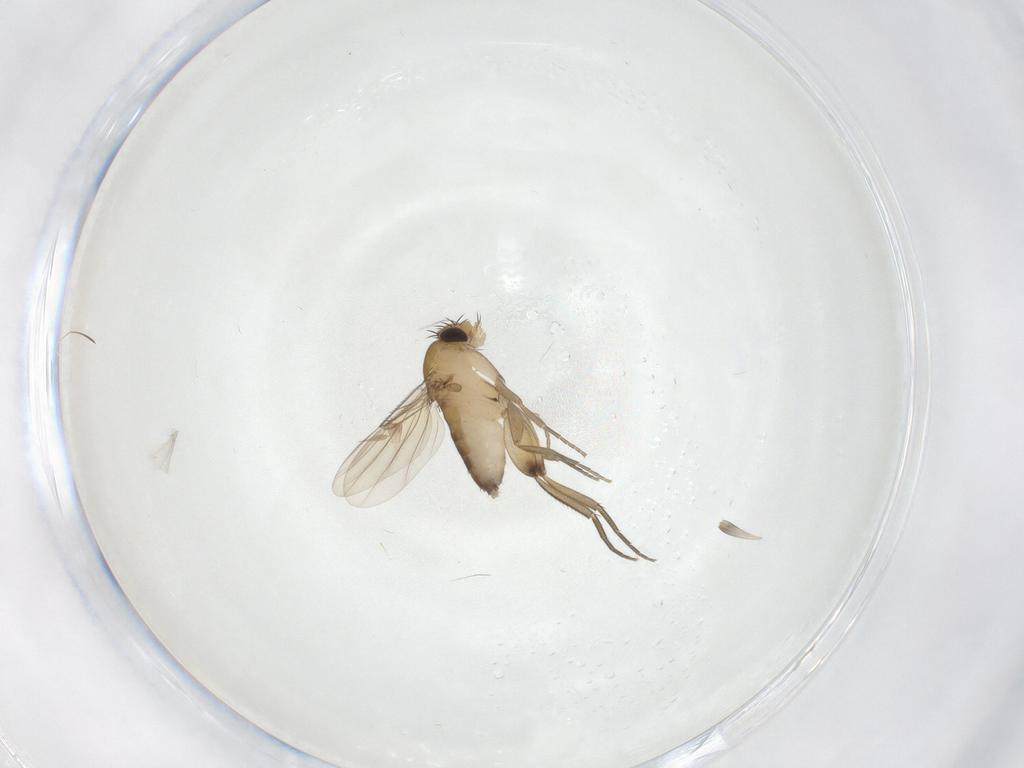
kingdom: Animalia
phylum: Arthropoda
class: Insecta
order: Diptera
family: Phoridae
